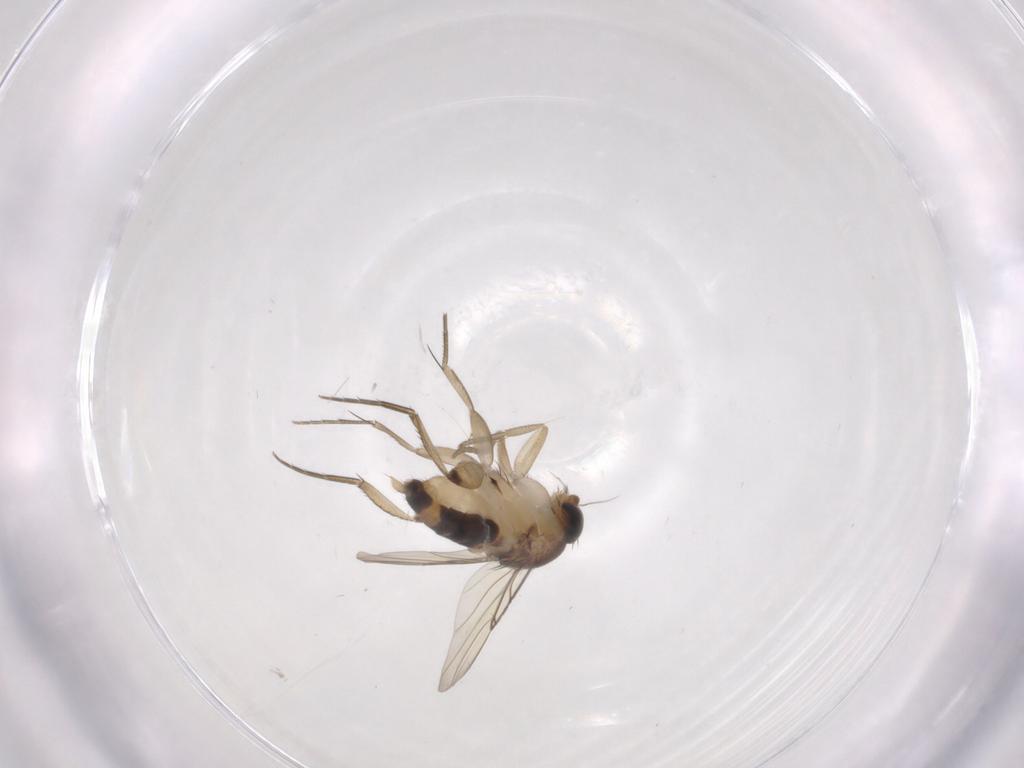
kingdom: Animalia
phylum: Arthropoda
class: Insecta
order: Diptera
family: Phoridae
